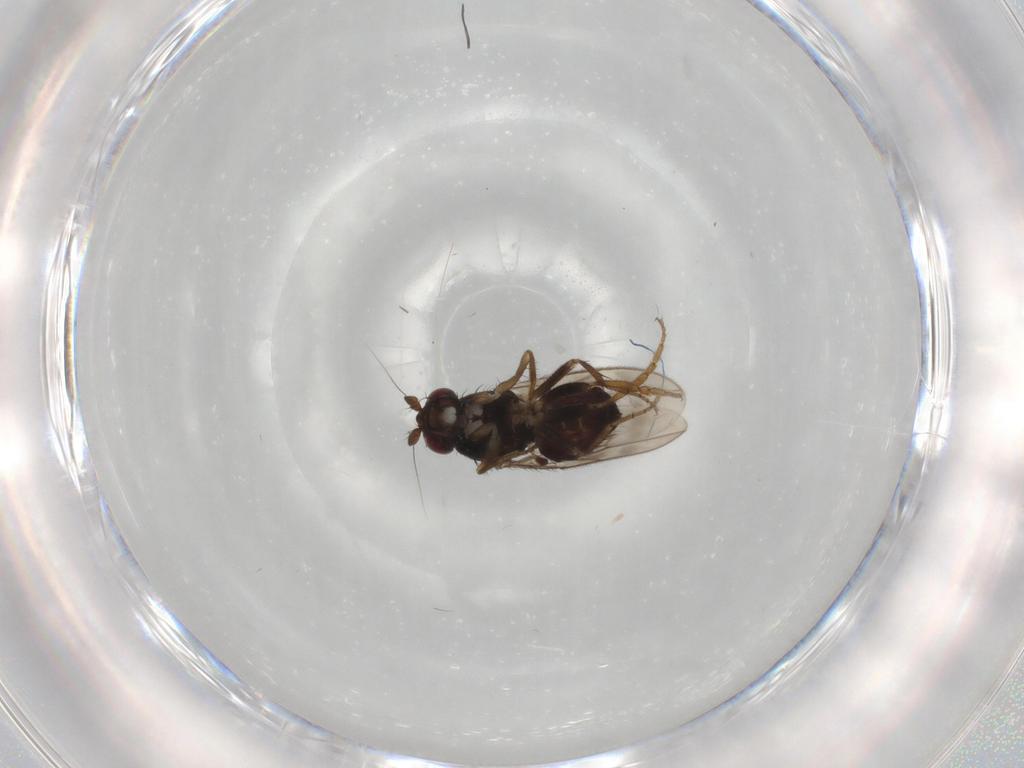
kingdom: Animalia
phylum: Arthropoda
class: Insecta
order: Diptera
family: Sphaeroceridae
